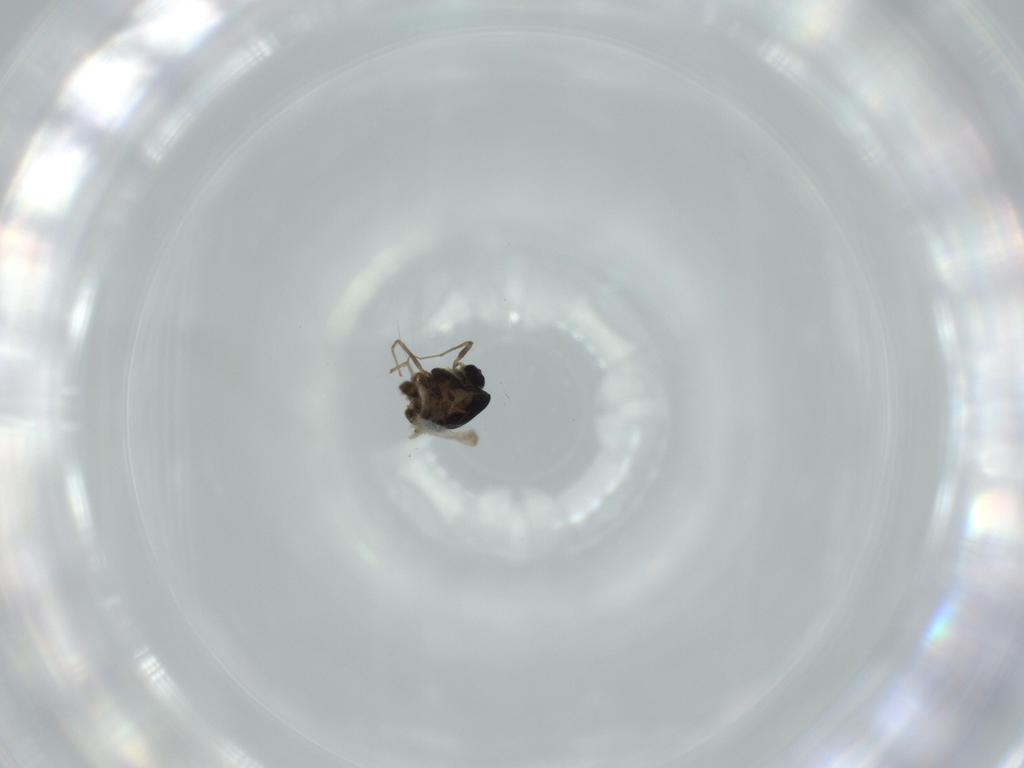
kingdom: Animalia
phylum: Arthropoda
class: Insecta
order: Diptera
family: Chironomidae
